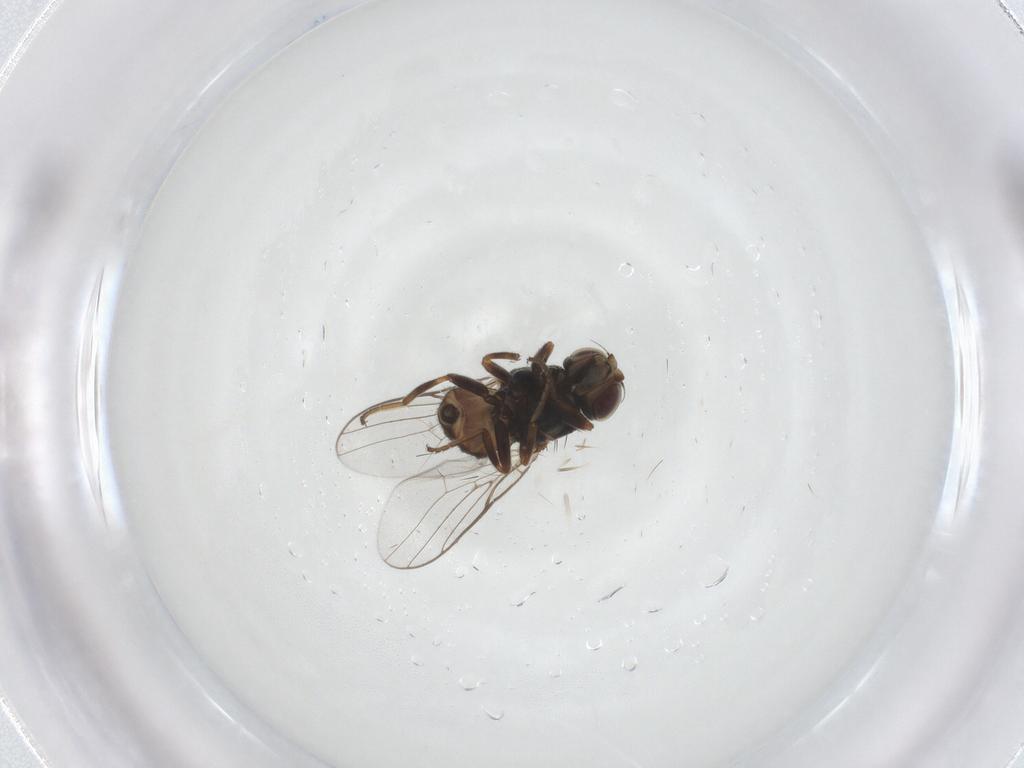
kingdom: Animalia
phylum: Arthropoda
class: Insecta
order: Diptera
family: Chloropidae
